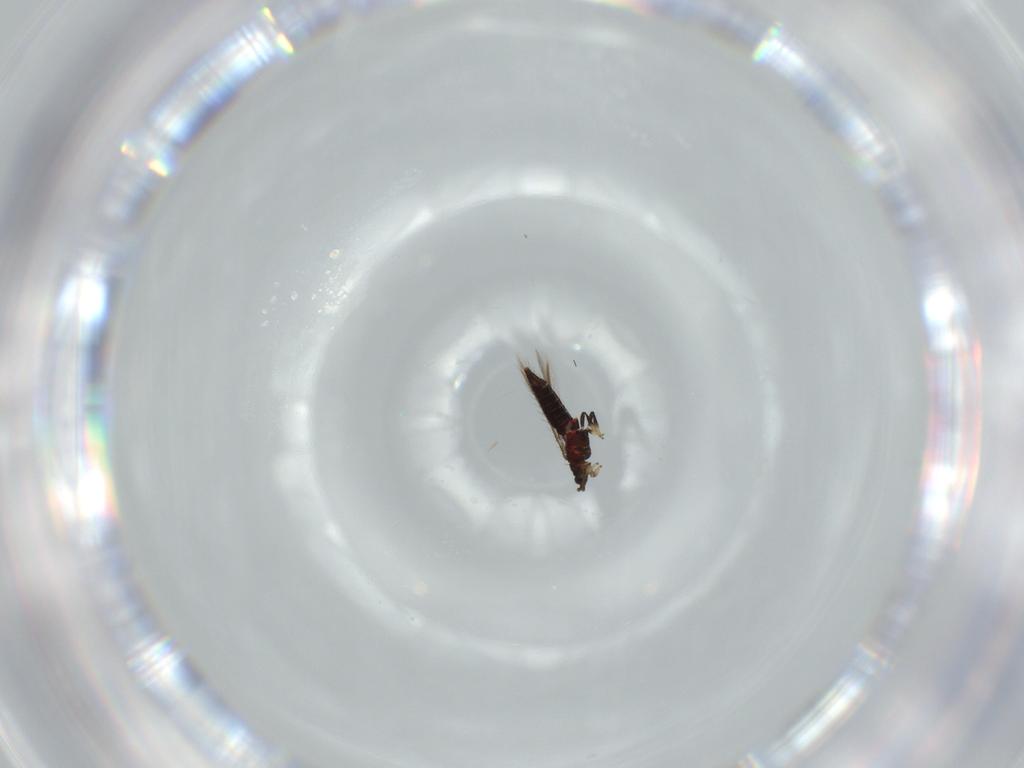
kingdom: Animalia
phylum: Arthropoda
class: Insecta
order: Thysanoptera
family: Thripidae
